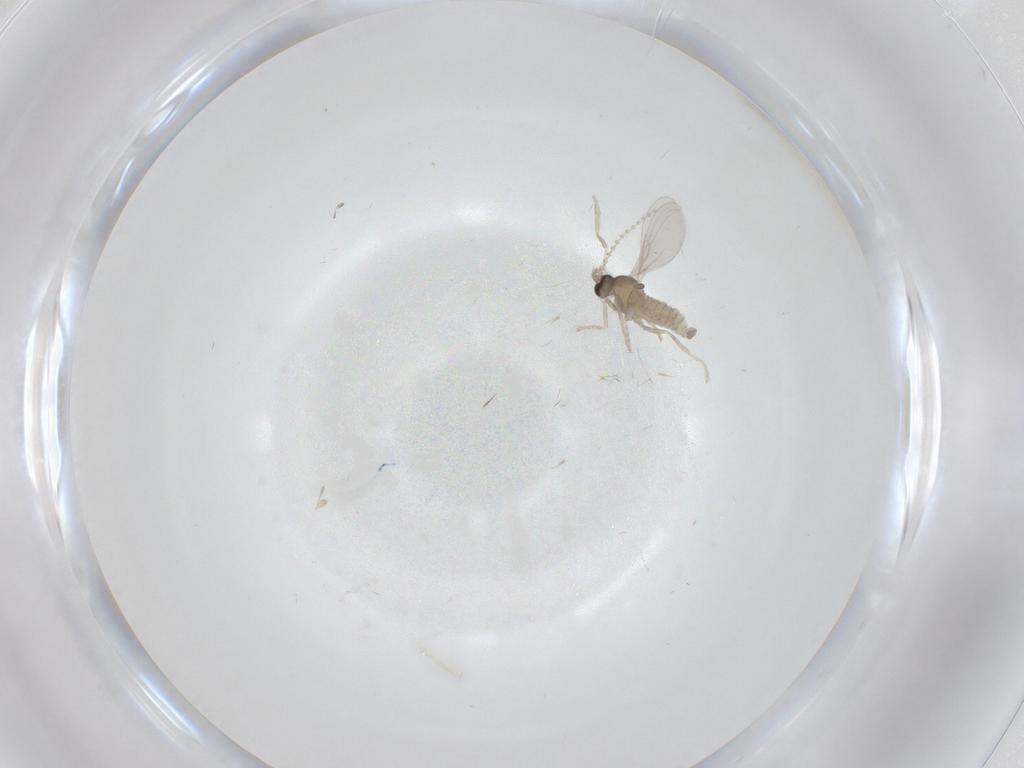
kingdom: Animalia
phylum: Arthropoda
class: Insecta
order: Diptera
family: Cecidomyiidae
